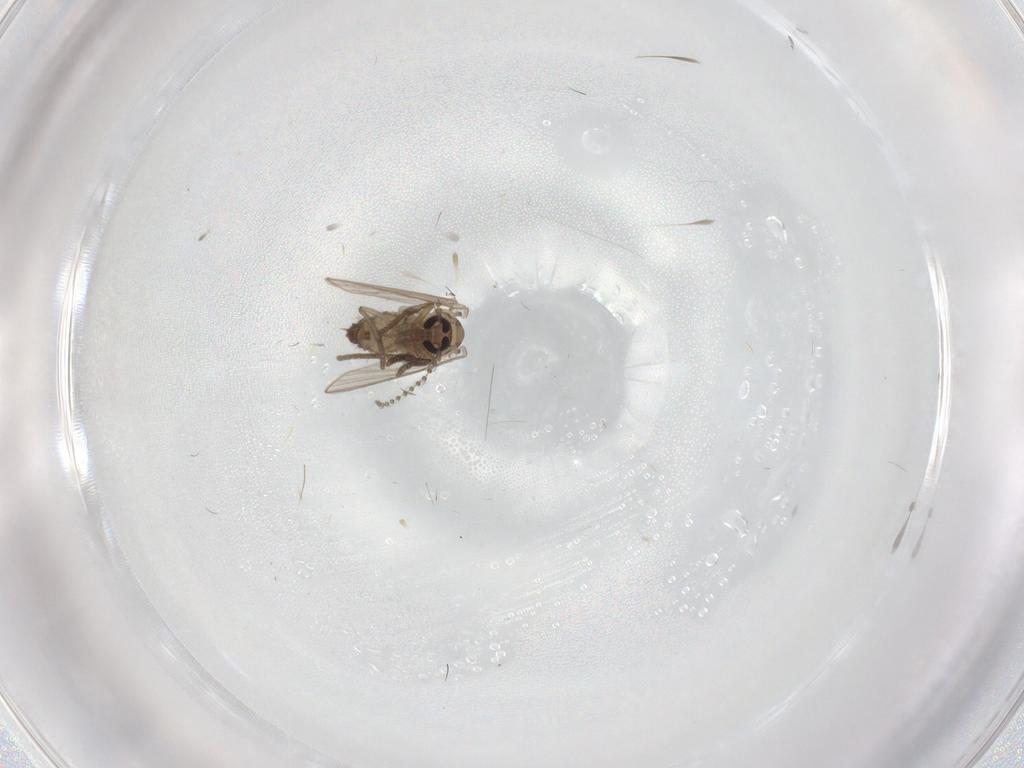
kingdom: Animalia
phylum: Arthropoda
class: Insecta
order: Diptera
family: Psychodidae
